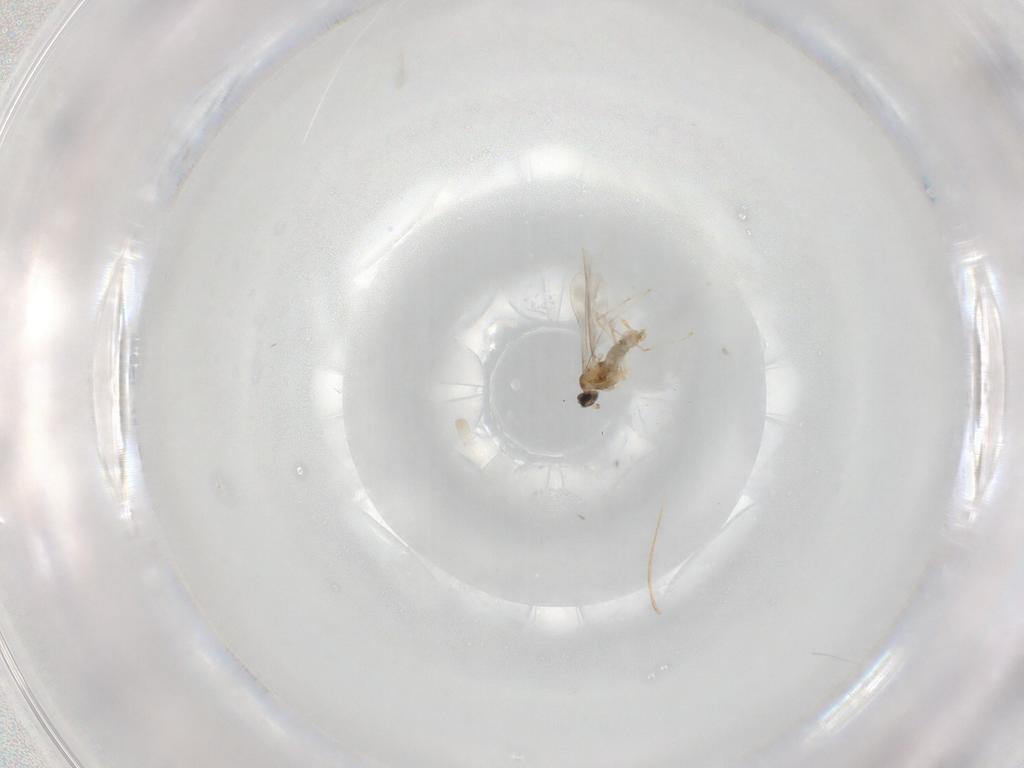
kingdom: Animalia
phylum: Arthropoda
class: Insecta
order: Diptera
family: Cecidomyiidae
